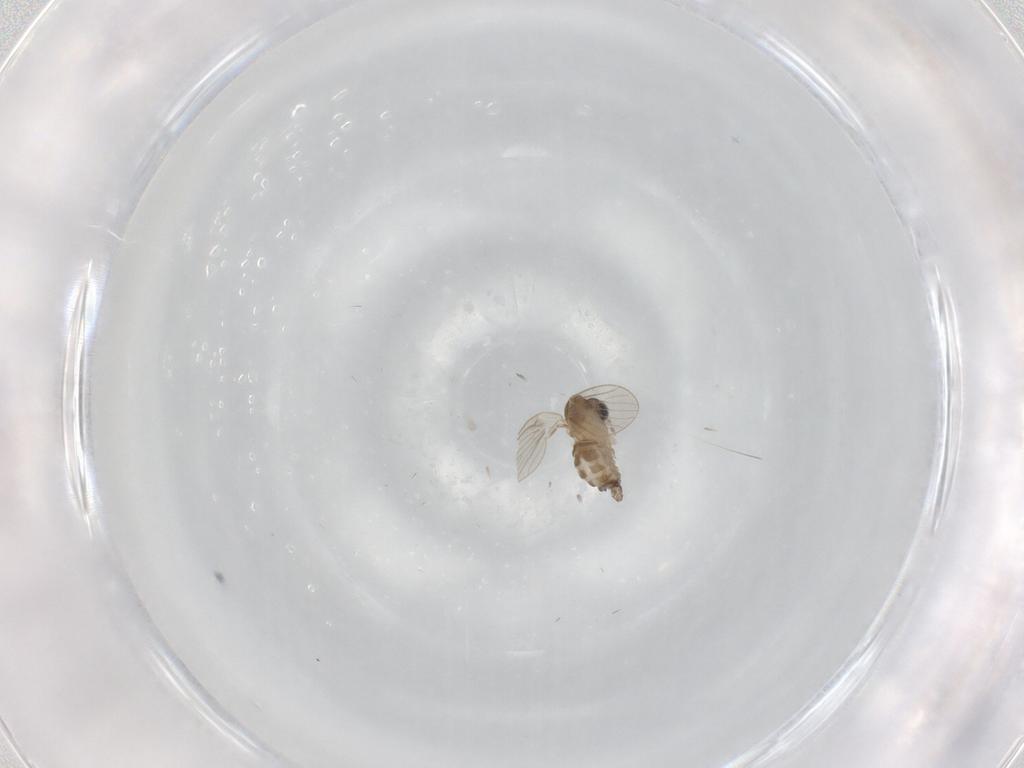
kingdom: Animalia
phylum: Arthropoda
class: Insecta
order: Diptera
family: Psychodidae
